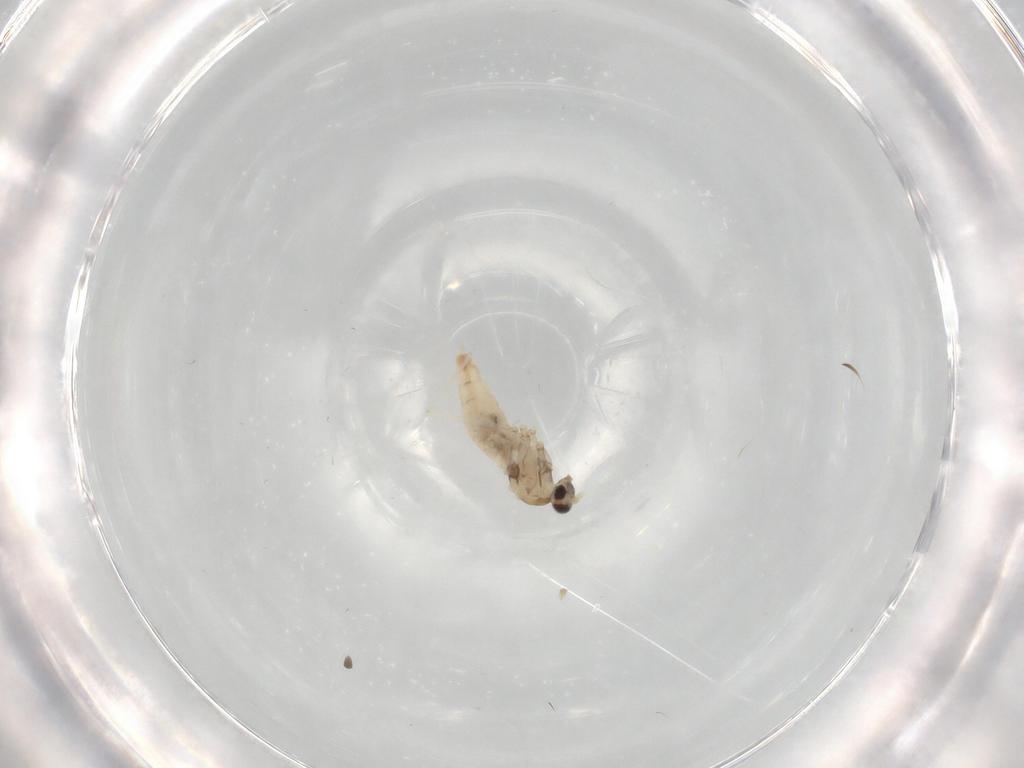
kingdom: Animalia
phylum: Arthropoda
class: Insecta
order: Diptera
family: Cecidomyiidae
